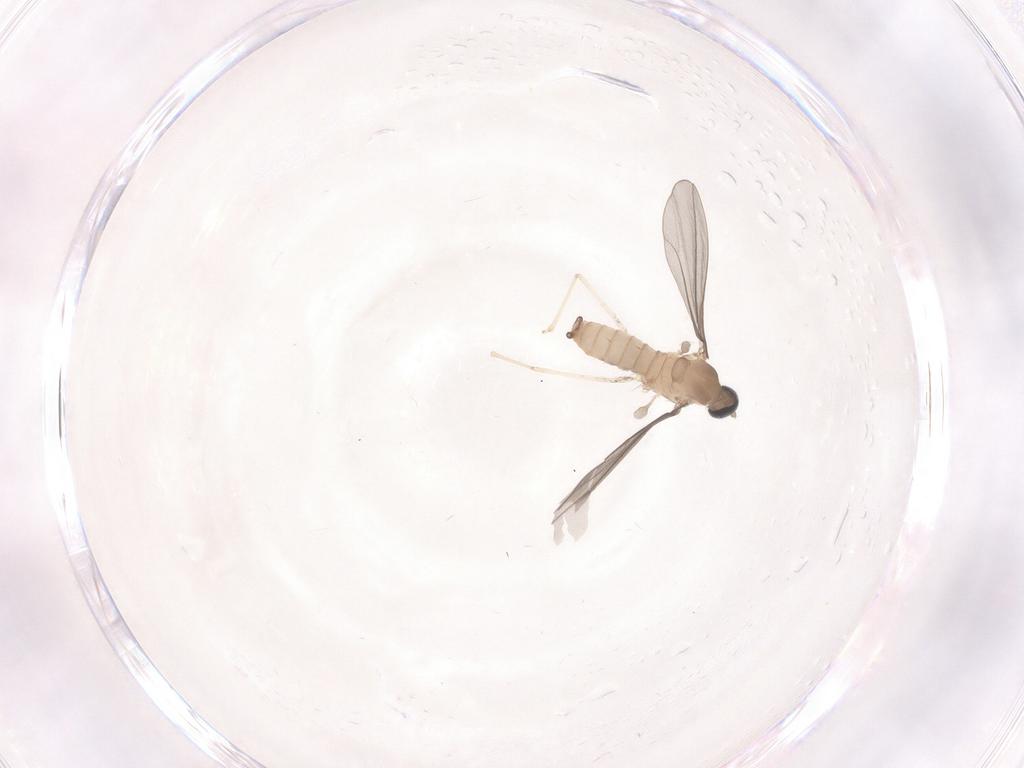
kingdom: Animalia
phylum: Arthropoda
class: Insecta
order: Diptera
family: Cecidomyiidae
